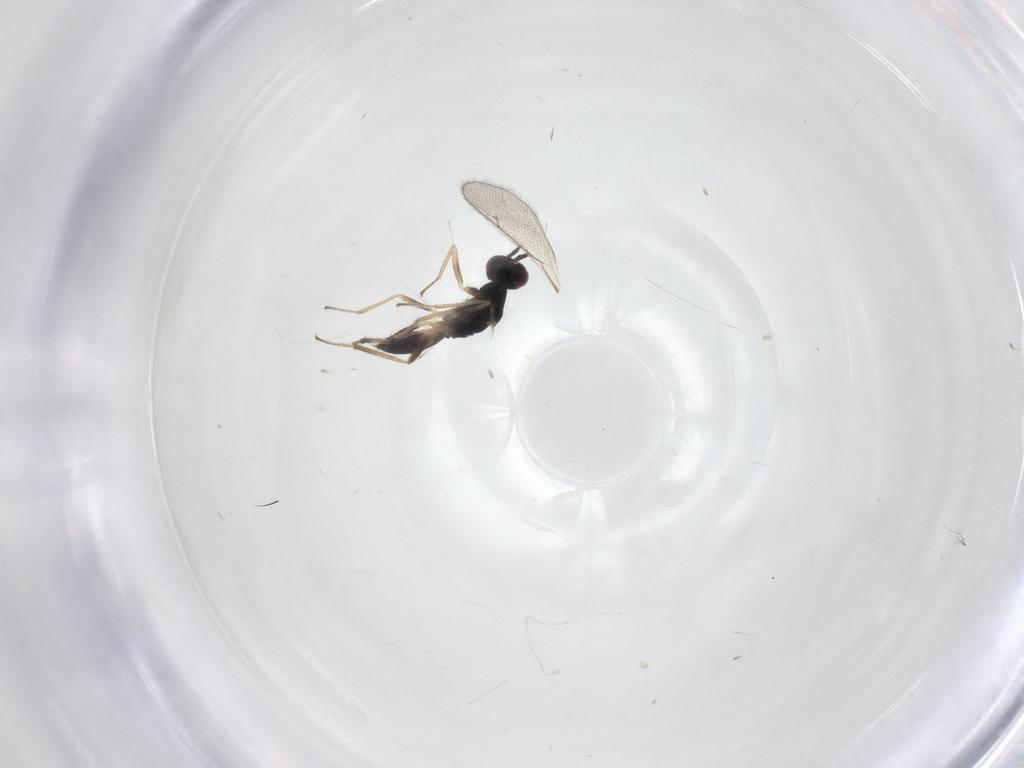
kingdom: Animalia
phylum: Arthropoda
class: Insecta
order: Hymenoptera
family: Eulophidae
